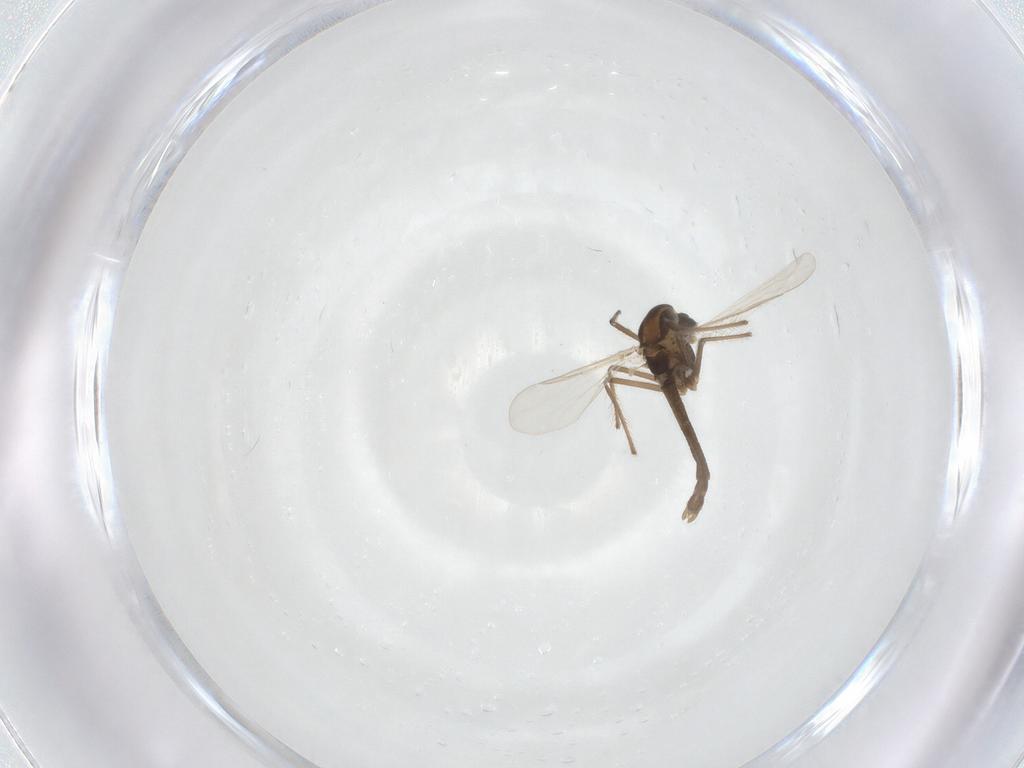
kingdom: Animalia
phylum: Arthropoda
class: Insecta
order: Diptera
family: Chironomidae
